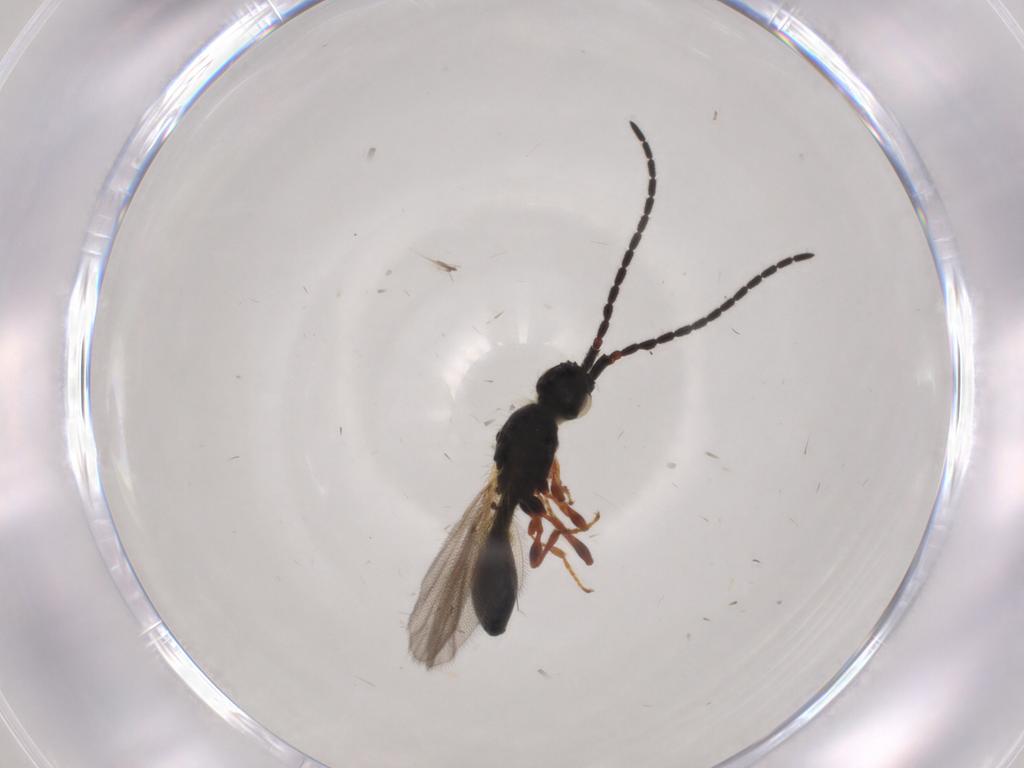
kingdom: Animalia
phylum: Arthropoda
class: Insecta
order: Hymenoptera
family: Diapriidae
